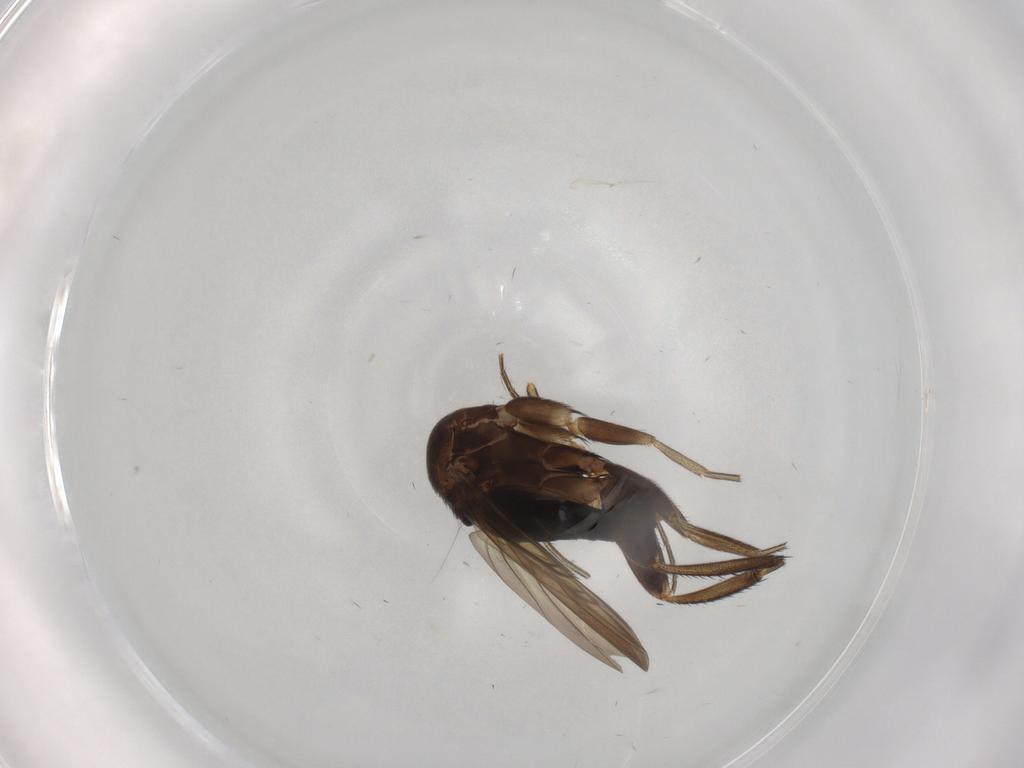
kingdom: Animalia
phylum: Arthropoda
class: Insecta
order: Diptera
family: Phoridae
